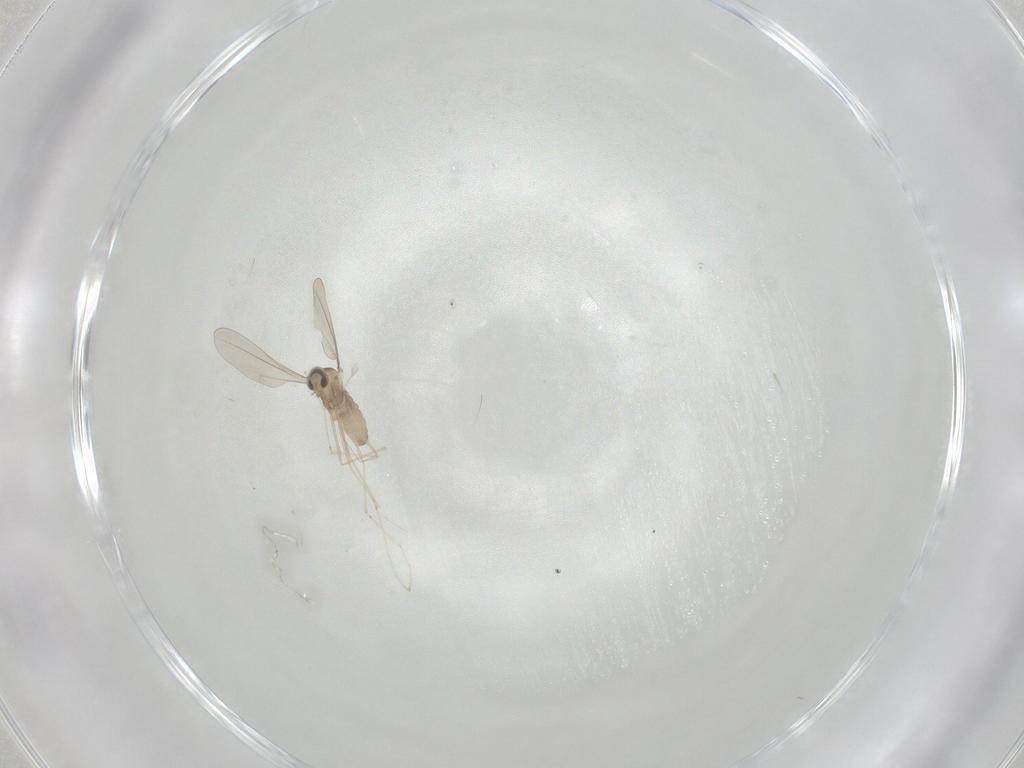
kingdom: Animalia
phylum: Arthropoda
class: Insecta
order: Diptera
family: Cecidomyiidae
